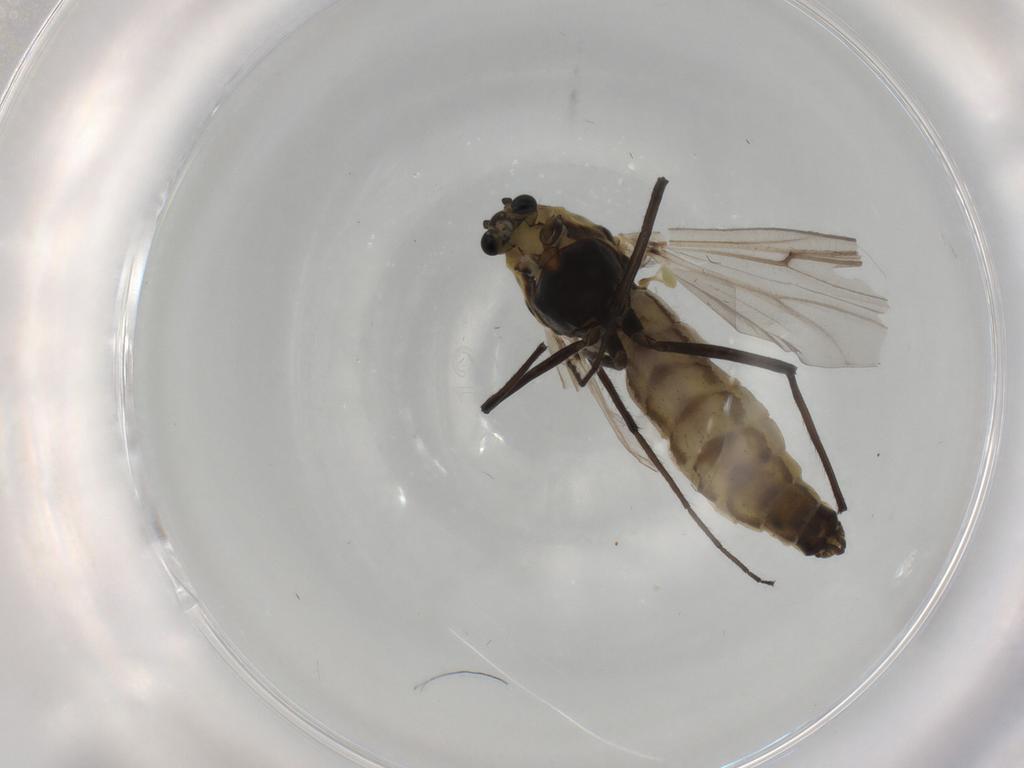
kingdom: Animalia
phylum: Arthropoda
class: Insecta
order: Diptera
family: Chironomidae
